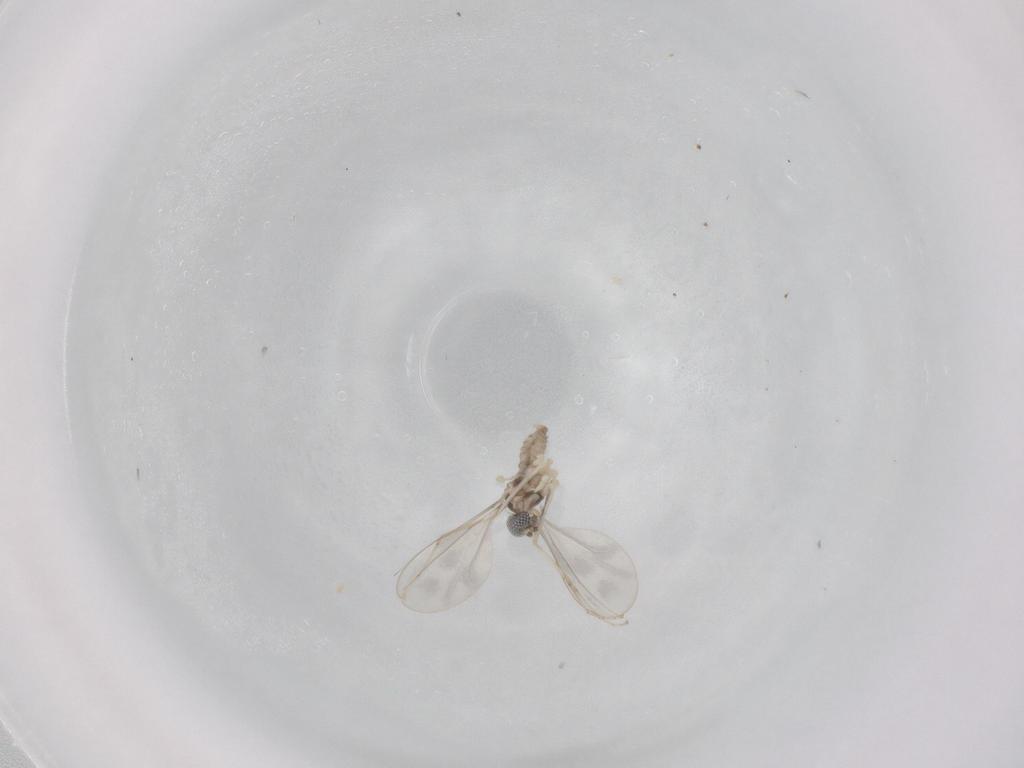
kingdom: Animalia
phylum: Arthropoda
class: Insecta
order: Diptera
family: Cecidomyiidae
